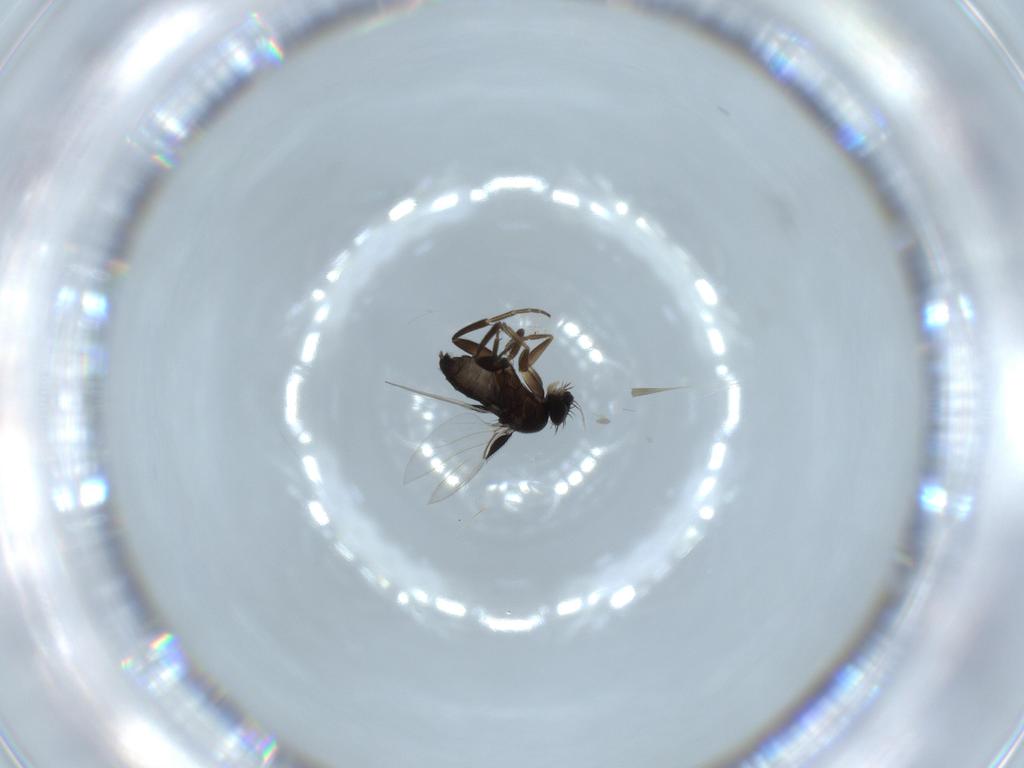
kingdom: Animalia
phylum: Arthropoda
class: Insecta
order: Diptera
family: Phoridae
